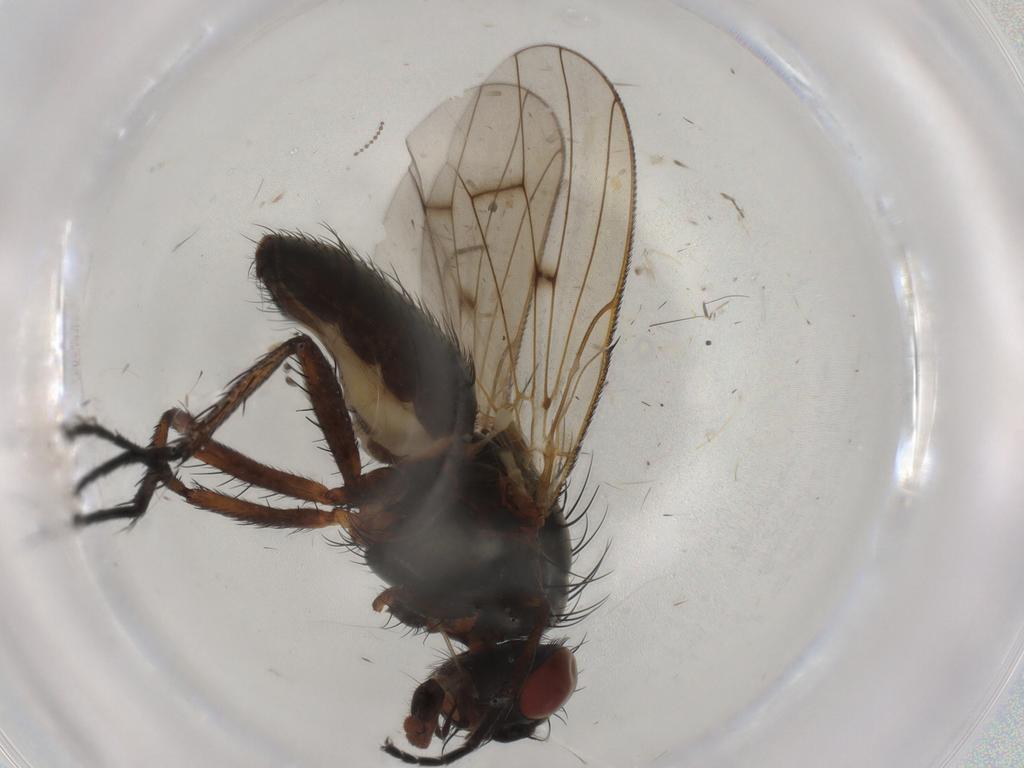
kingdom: Animalia
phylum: Arthropoda
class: Insecta
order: Diptera
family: Anthomyiidae
